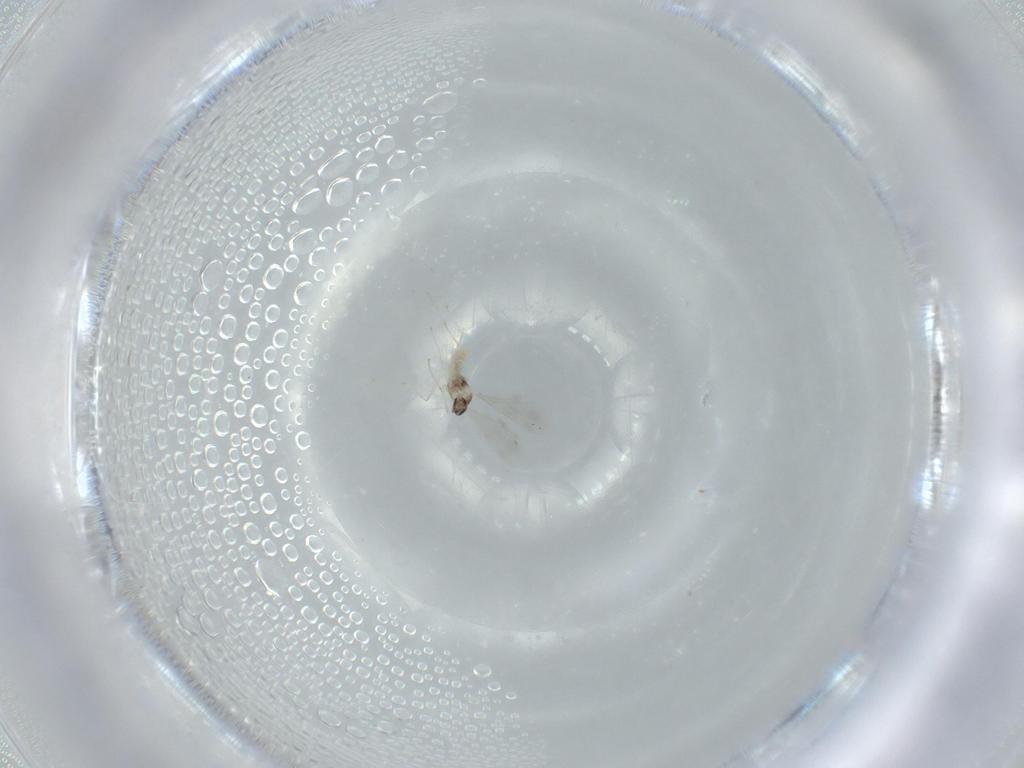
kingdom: Animalia
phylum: Arthropoda
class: Insecta
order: Diptera
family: Cecidomyiidae
